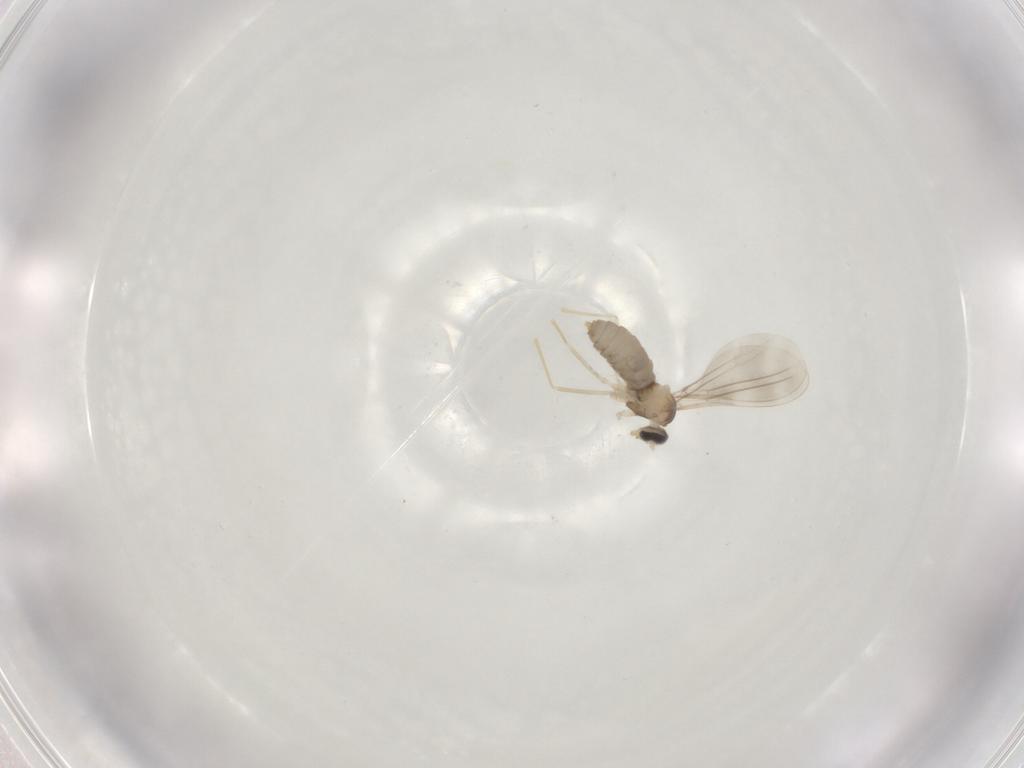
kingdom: Animalia
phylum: Arthropoda
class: Insecta
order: Diptera
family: Cecidomyiidae
